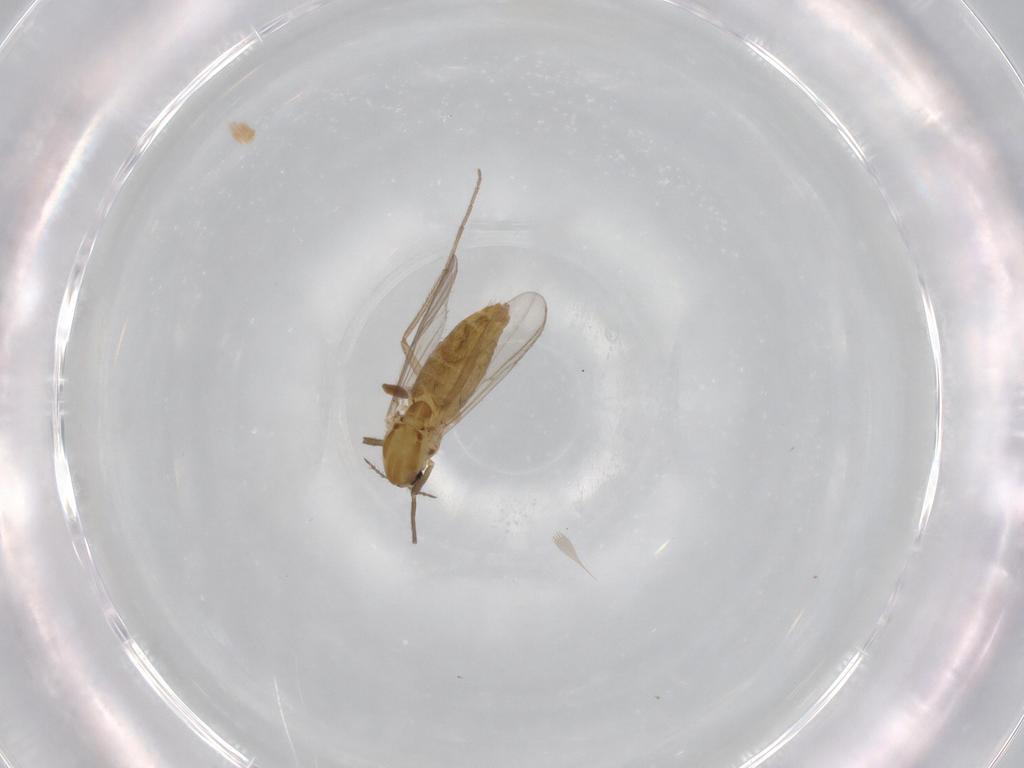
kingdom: Animalia
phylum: Arthropoda
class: Insecta
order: Diptera
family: Chironomidae
